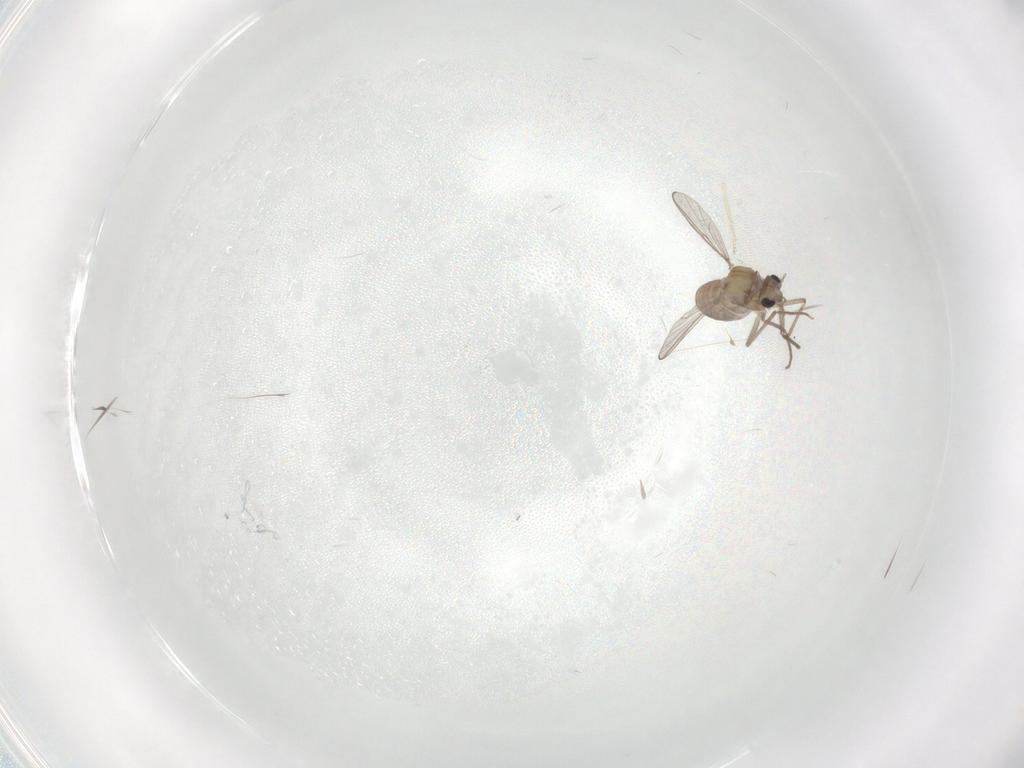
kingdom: Animalia
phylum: Arthropoda
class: Insecta
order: Diptera
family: Chironomidae
